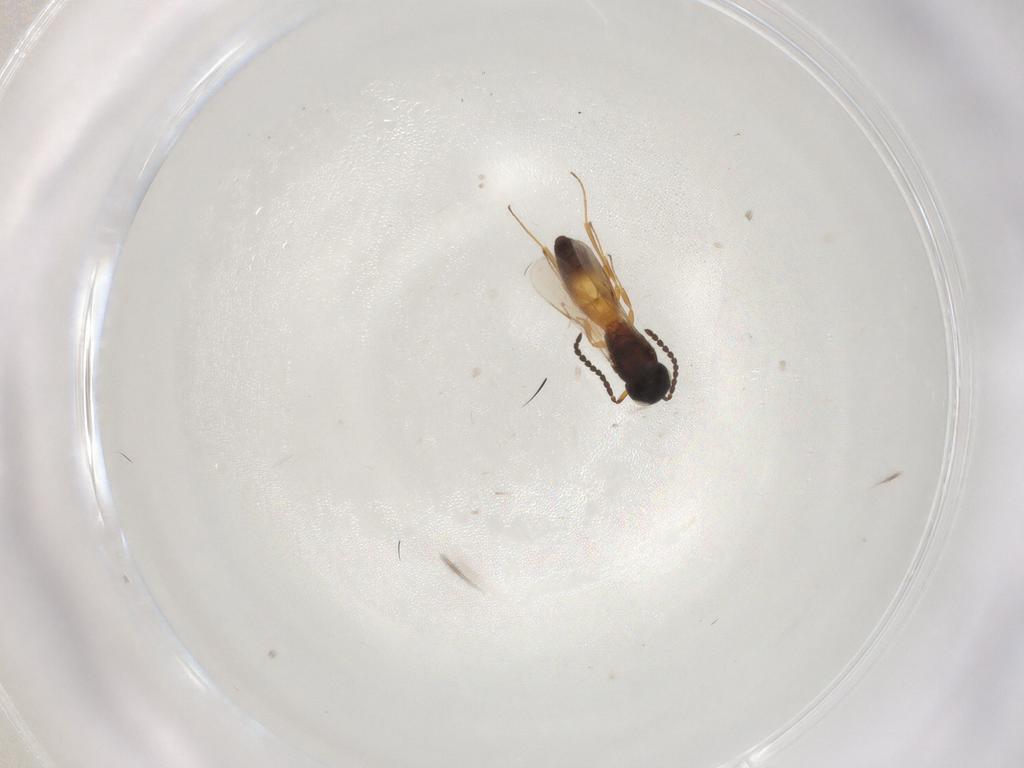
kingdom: Animalia
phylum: Arthropoda
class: Insecta
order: Hymenoptera
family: Scelionidae
